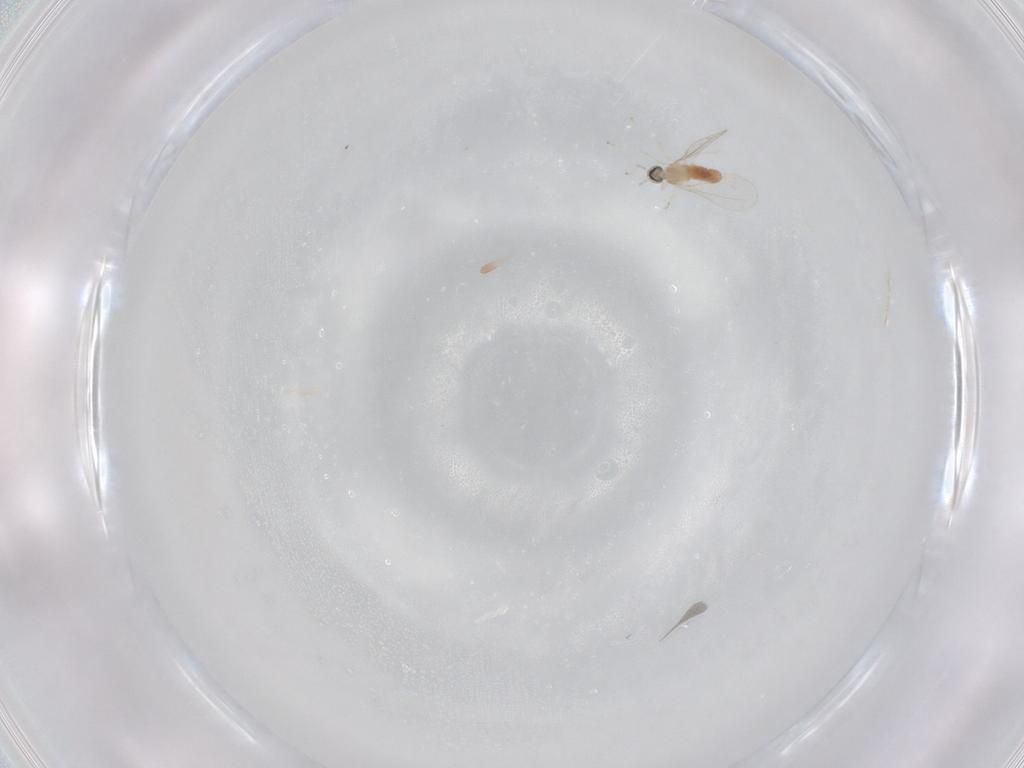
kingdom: Animalia
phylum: Arthropoda
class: Insecta
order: Diptera
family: Cecidomyiidae
